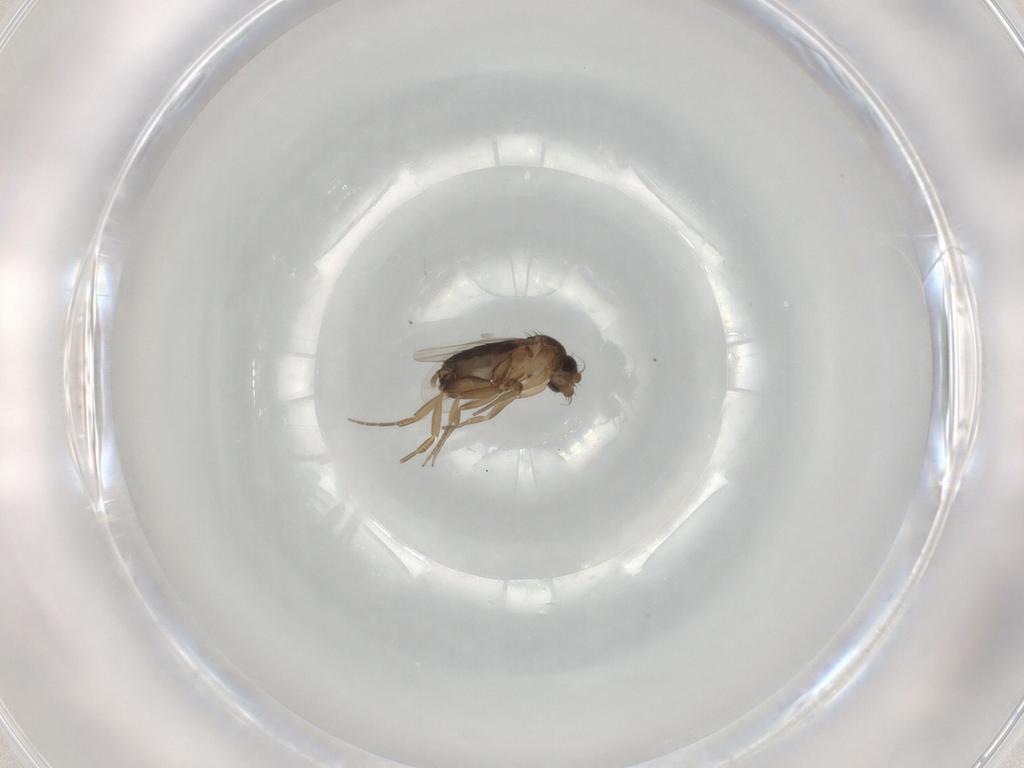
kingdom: Animalia
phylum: Arthropoda
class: Insecta
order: Diptera
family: Phoridae
